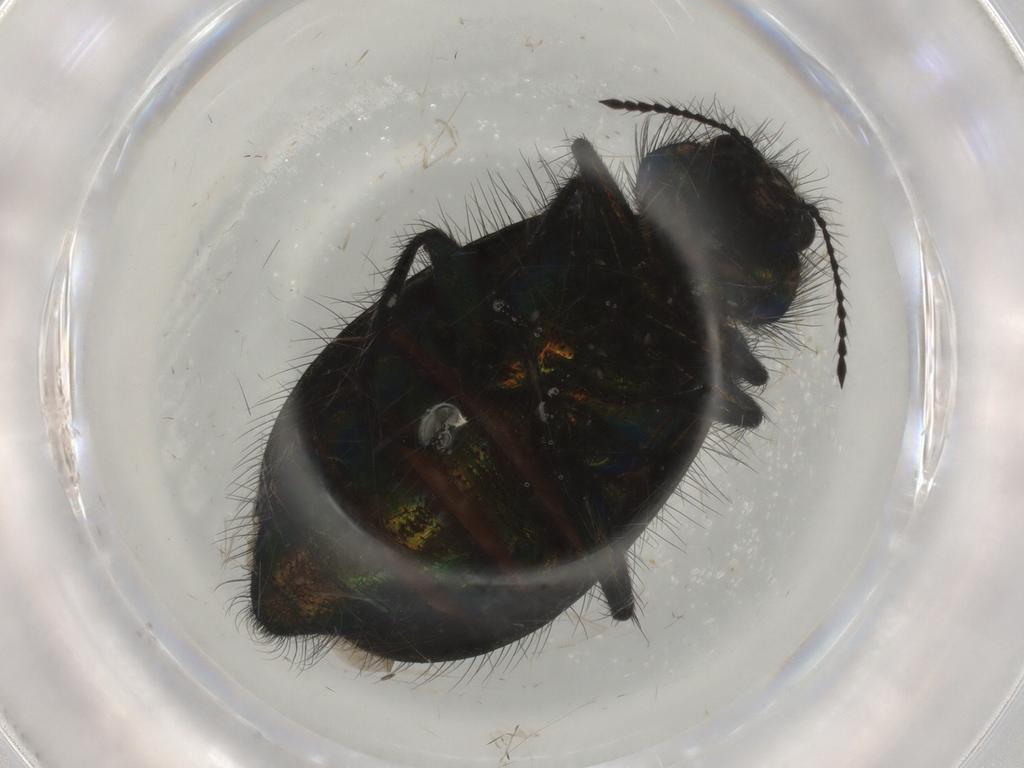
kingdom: Animalia
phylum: Arthropoda
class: Insecta
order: Coleoptera
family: Melyridae
